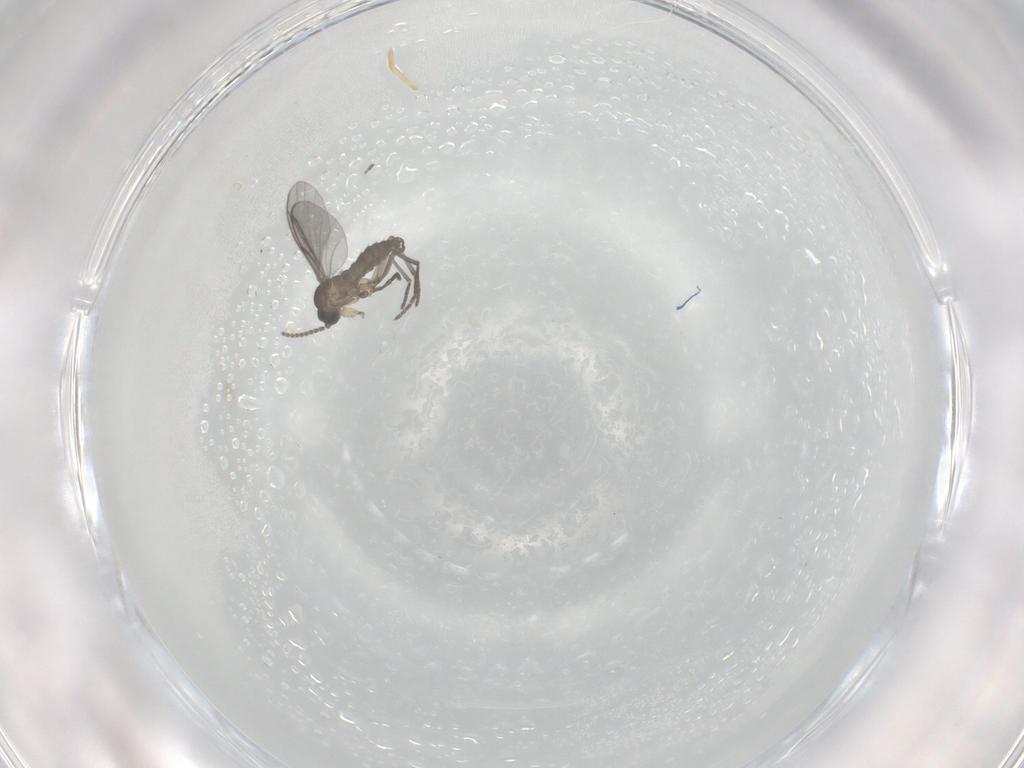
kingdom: Animalia
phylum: Arthropoda
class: Insecta
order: Diptera
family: Sciaridae
